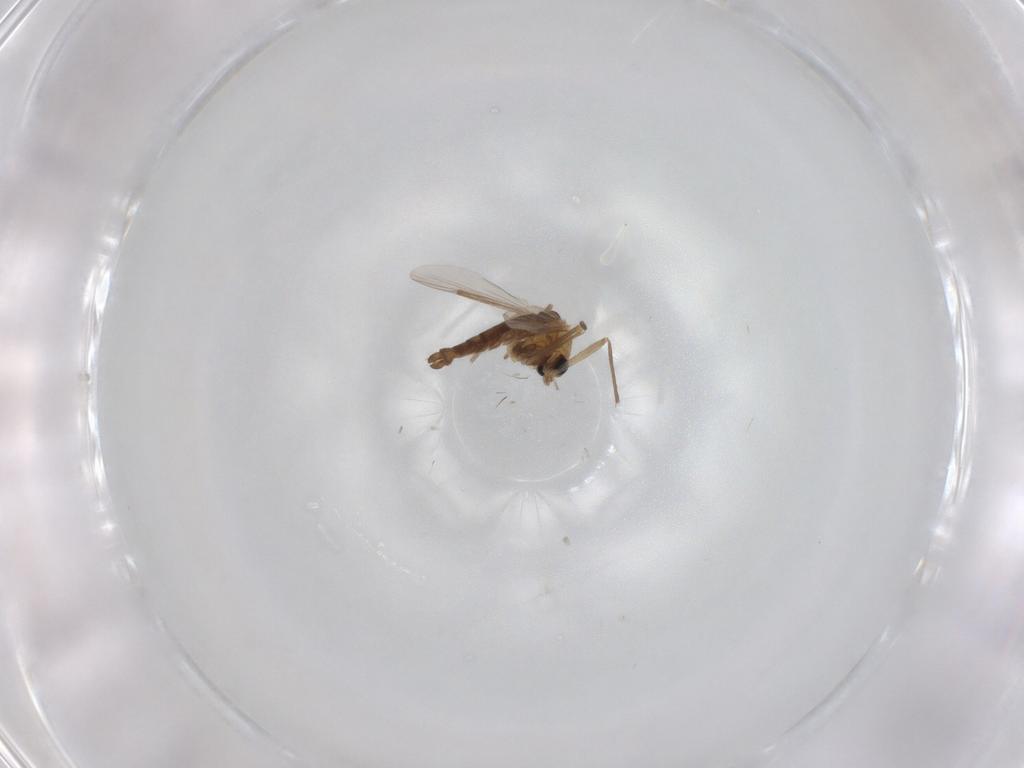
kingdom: Animalia
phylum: Arthropoda
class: Insecta
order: Diptera
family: Chironomidae
